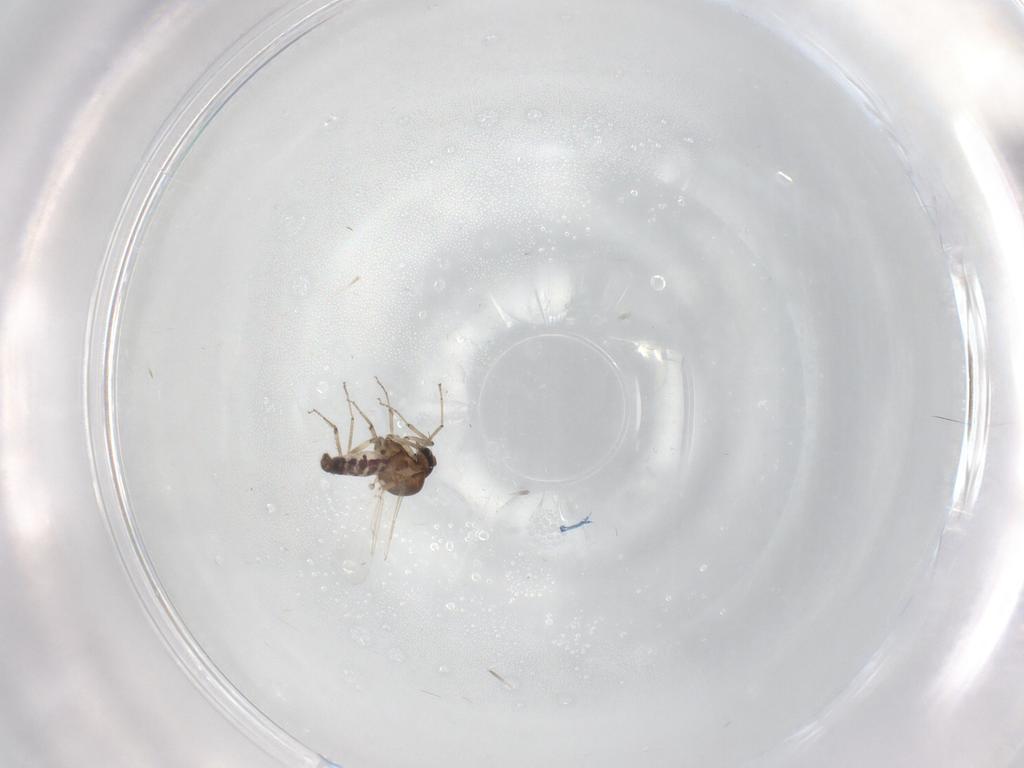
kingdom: Animalia
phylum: Arthropoda
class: Insecta
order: Diptera
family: Ceratopogonidae
